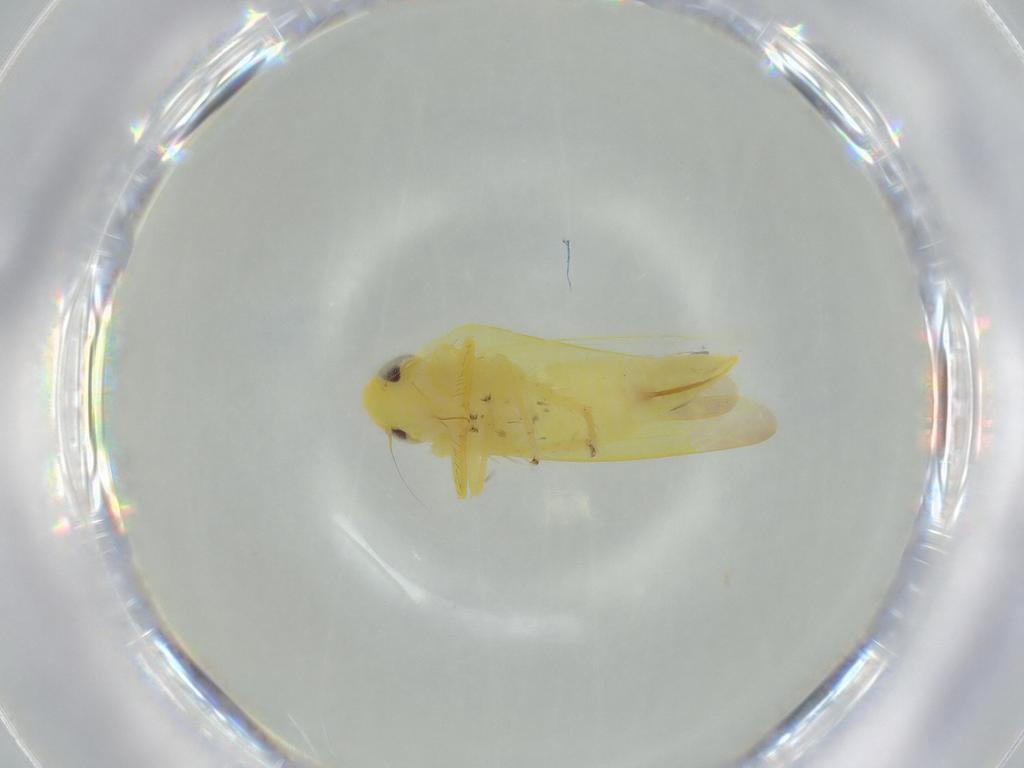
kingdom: Animalia
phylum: Arthropoda
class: Insecta
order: Hemiptera
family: Cicadellidae
